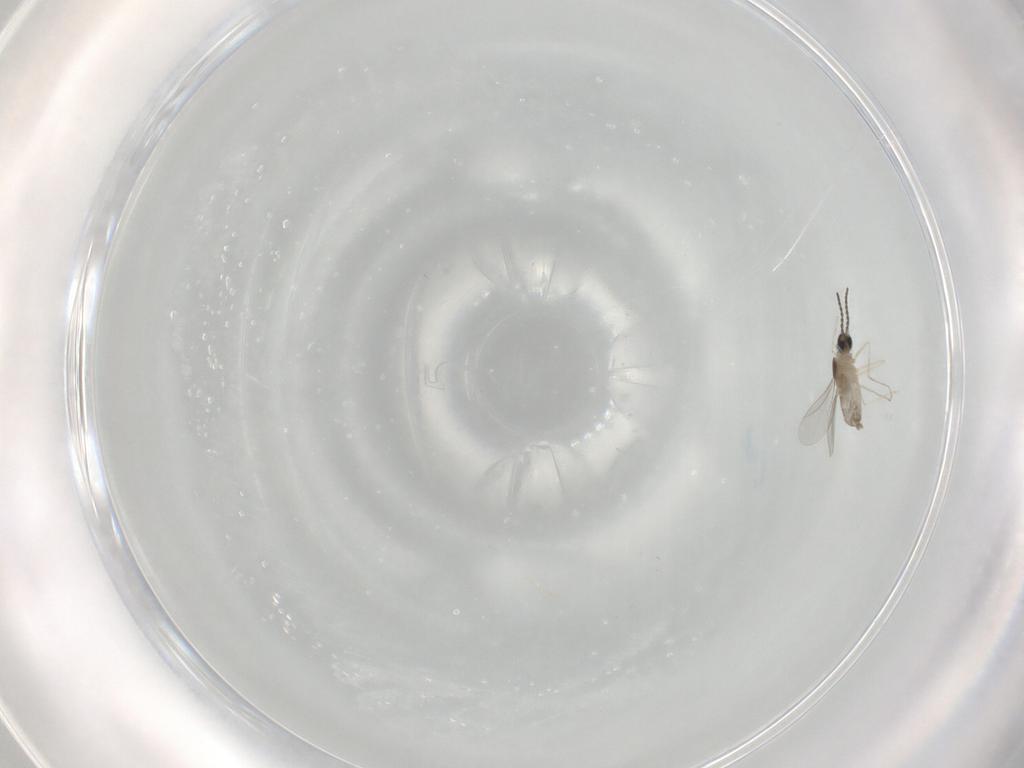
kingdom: Animalia
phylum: Arthropoda
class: Insecta
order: Diptera
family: Cecidomyiidae
